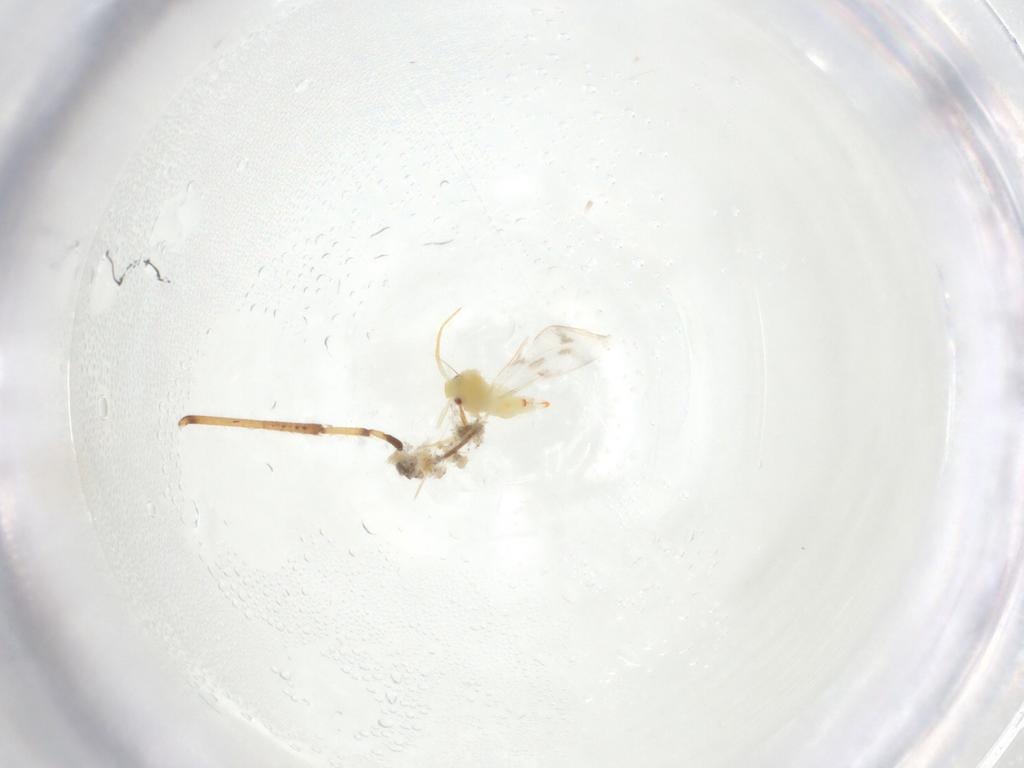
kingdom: Animalia
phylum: Arthropoda
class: Insecta
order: Hemiptera
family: Aleyrodidae
